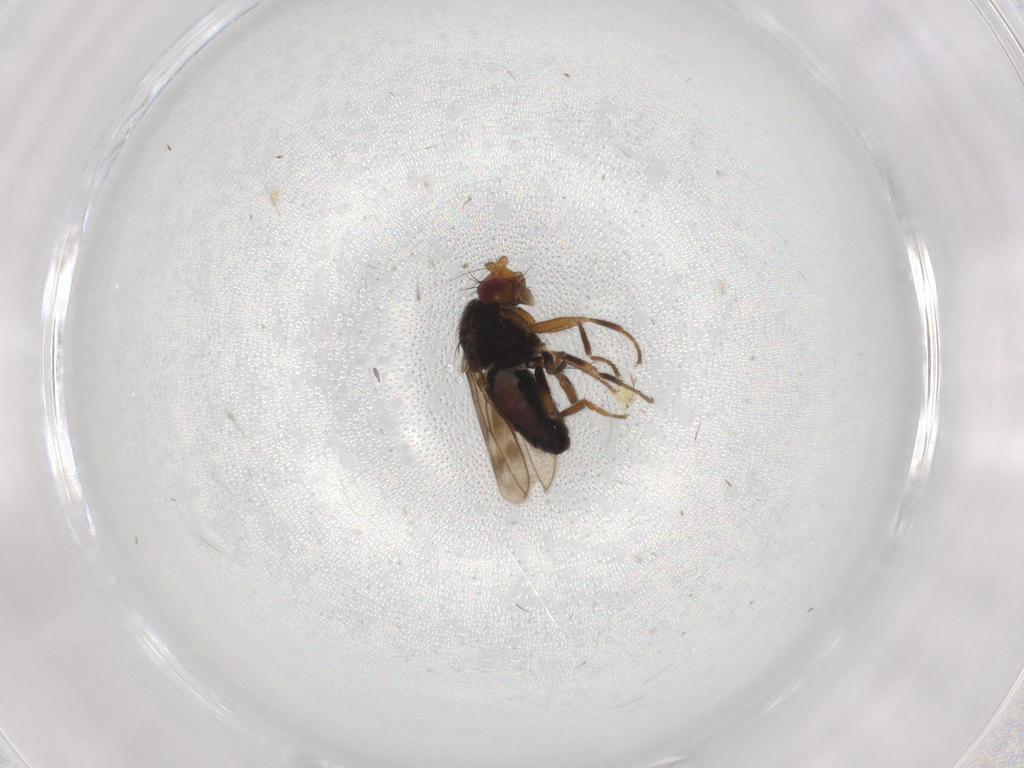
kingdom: Animalia
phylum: Arthropoda
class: Insecta
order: Diptera
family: Sphaeroceridae
